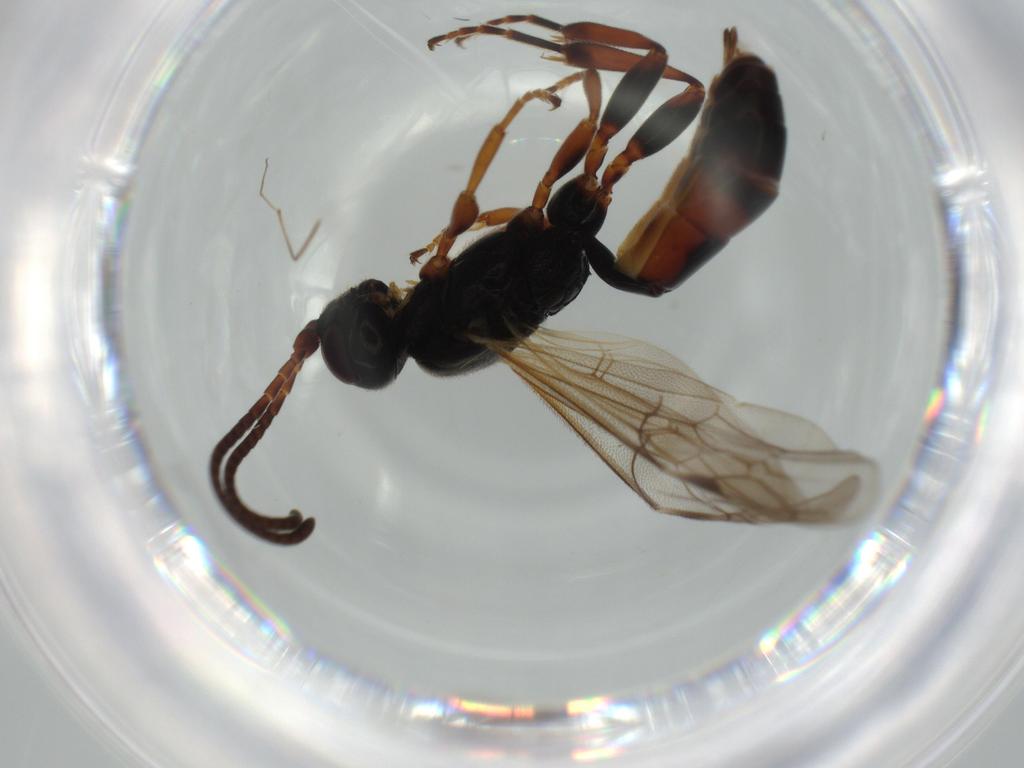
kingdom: Animalia
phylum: Arthropoda
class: Insecta
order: Hymenoptera
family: Ichneumonidae
